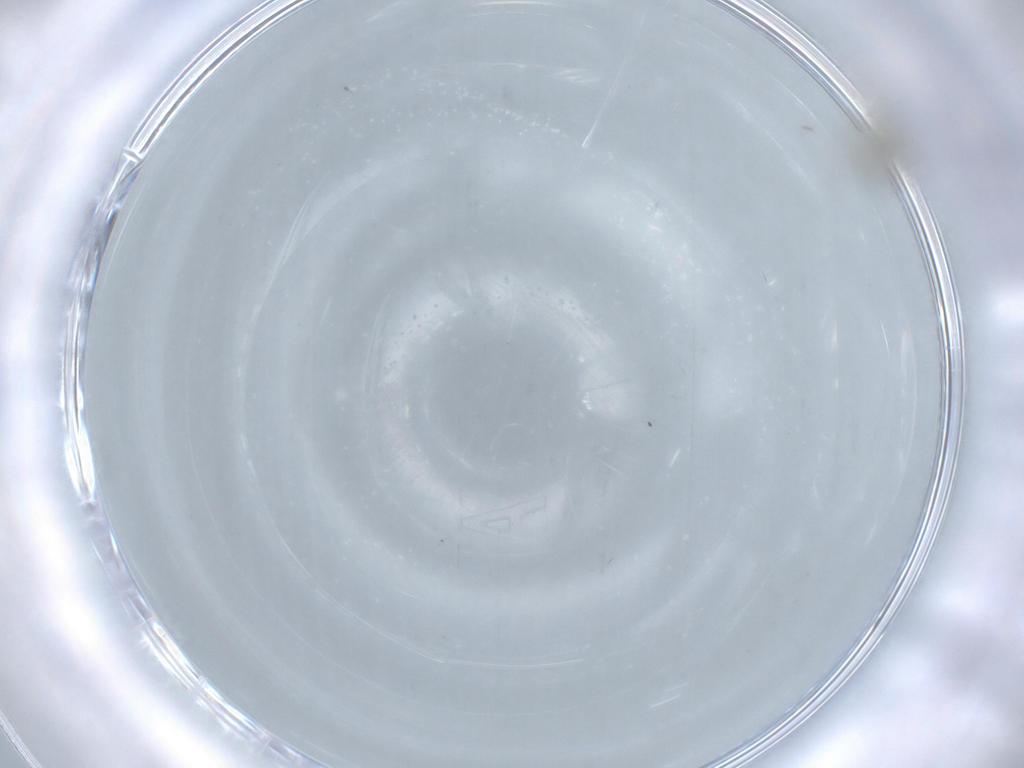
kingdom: Animalia
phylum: Arthropoda
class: Insecta
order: Diptera
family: Cecidomyiidae
